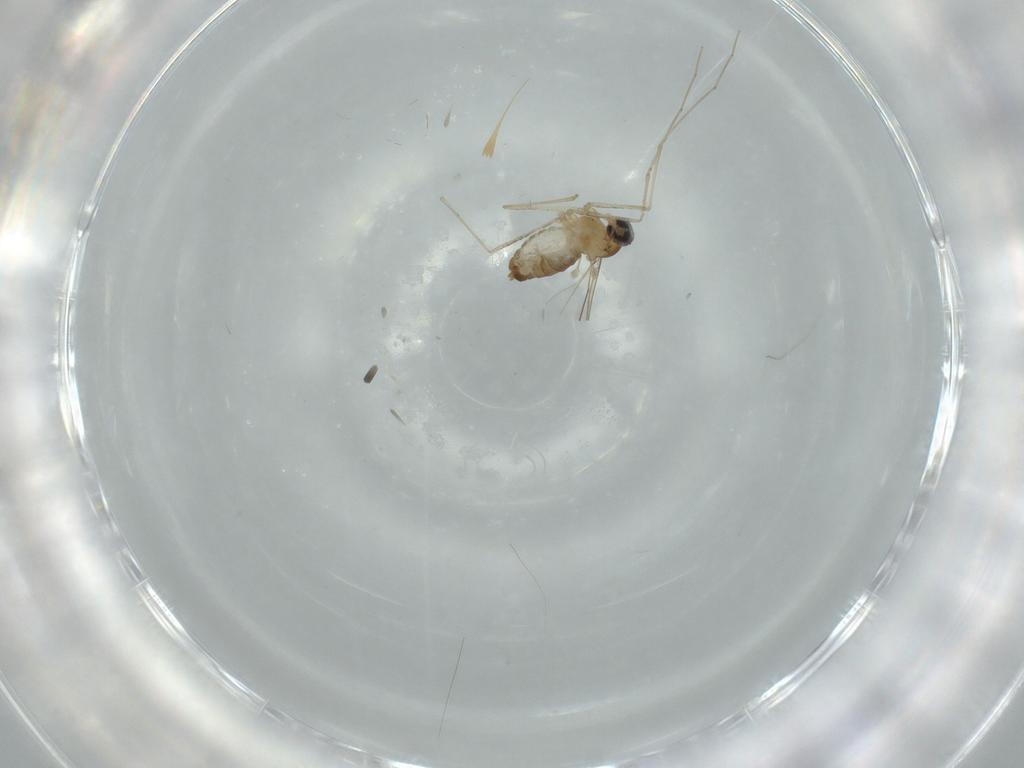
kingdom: Animalia
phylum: Arthropoda
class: Insecta
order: Diptera
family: Cecidomyiidae
